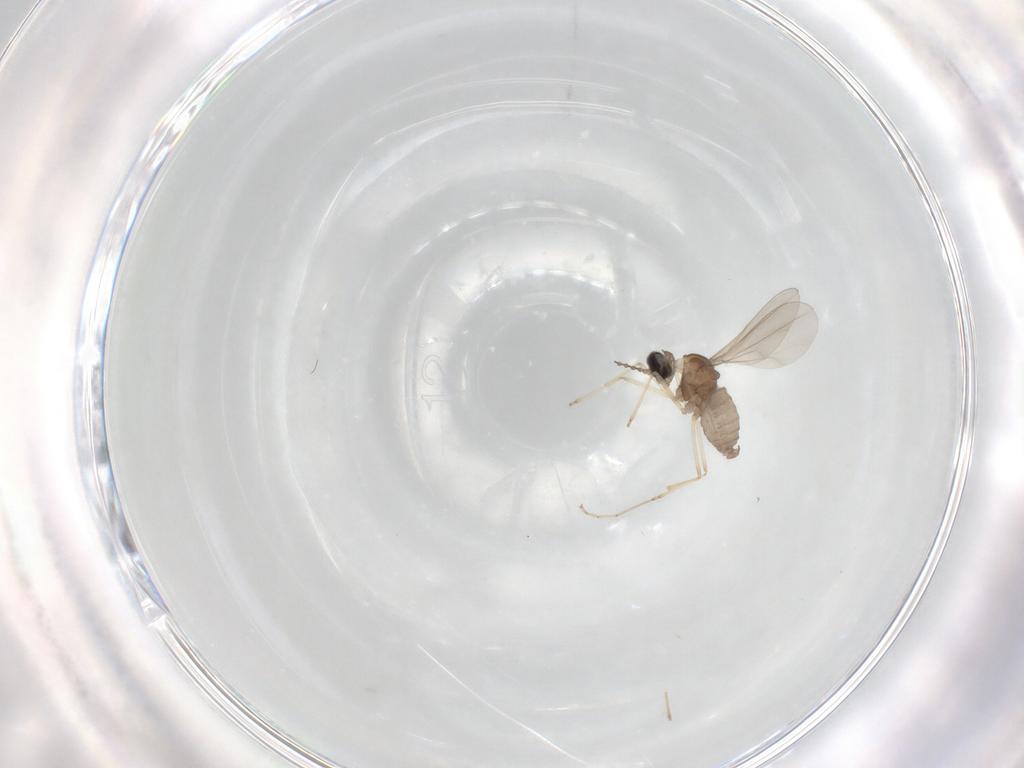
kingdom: Animalia
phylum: Arthropoda
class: Insecta
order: Diptera
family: Cecidomyiidae
